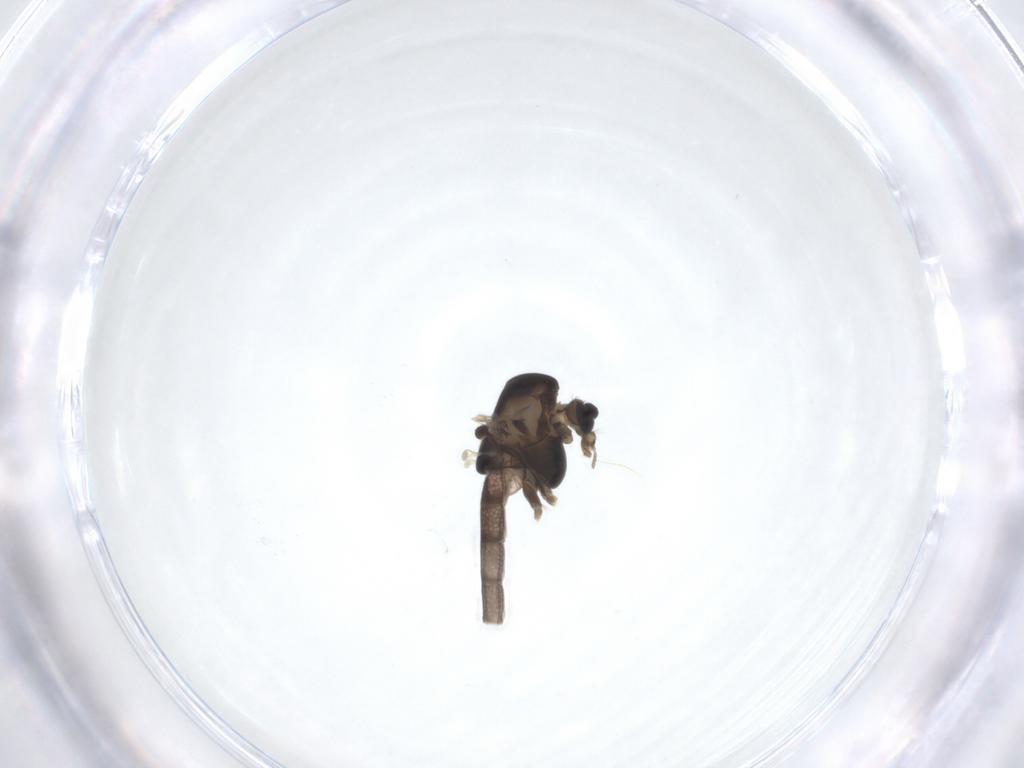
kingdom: Animalia
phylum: Arthropoda
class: Insecta
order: Diptera
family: Chironomidae
